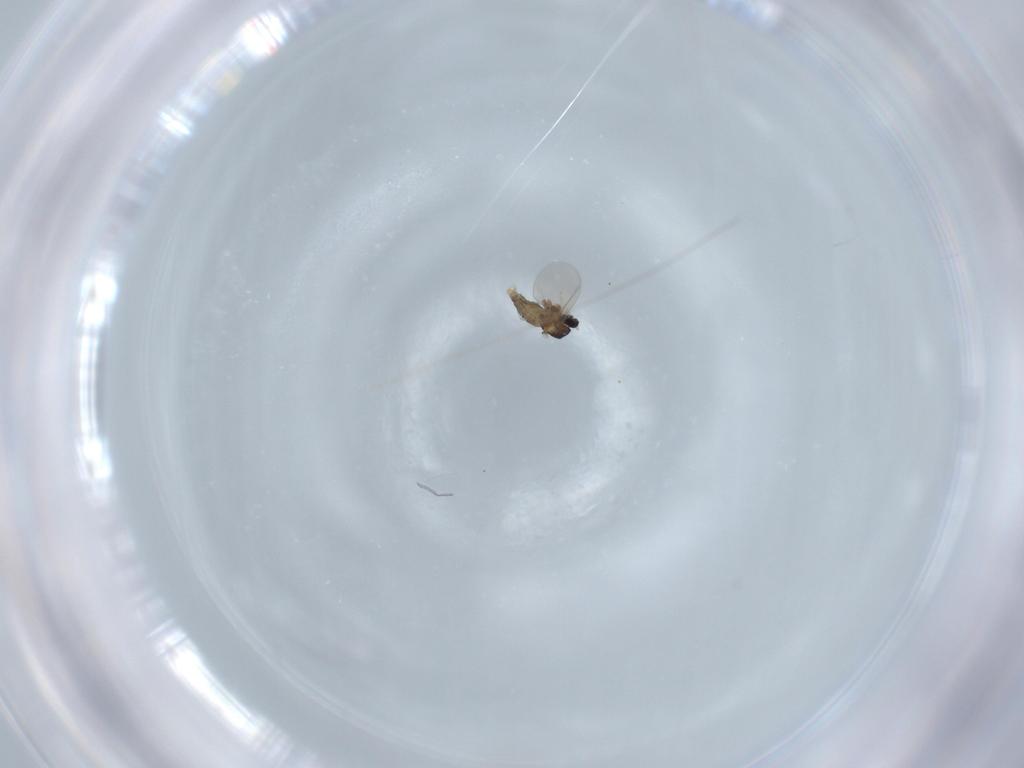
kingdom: Animalia
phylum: Arthropoda
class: Insecta
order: Diptera
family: Cecidomyiidae
